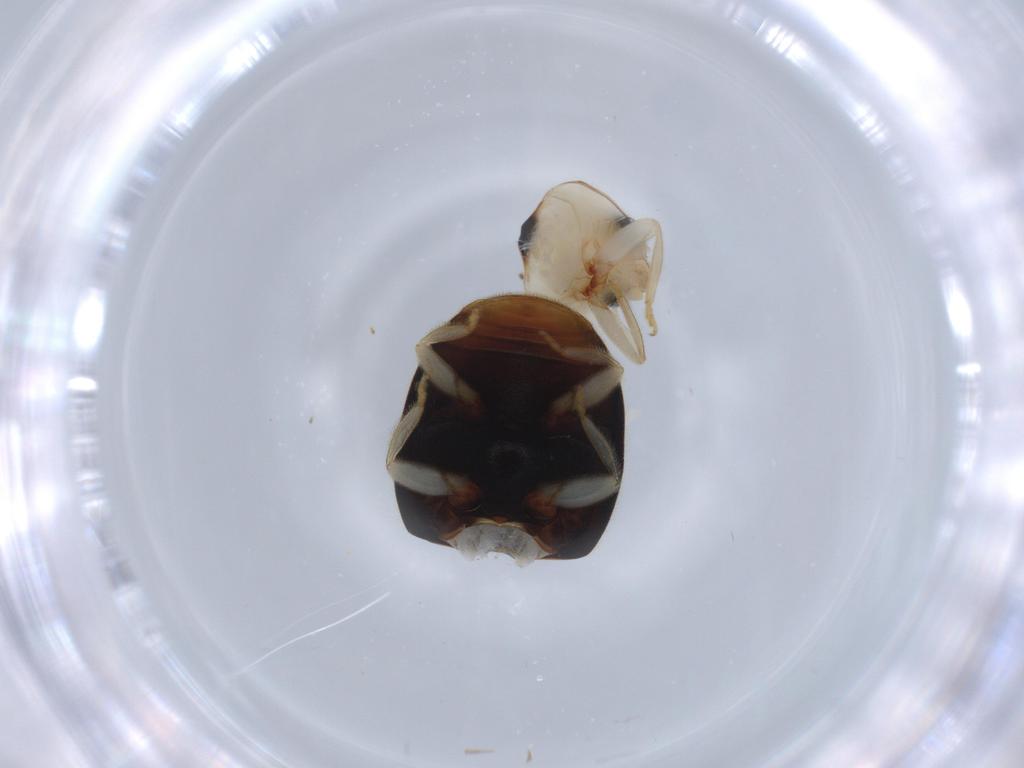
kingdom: Animalia
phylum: Arthropoda
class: Insecta
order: Coleoptera
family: Coccinellidae
